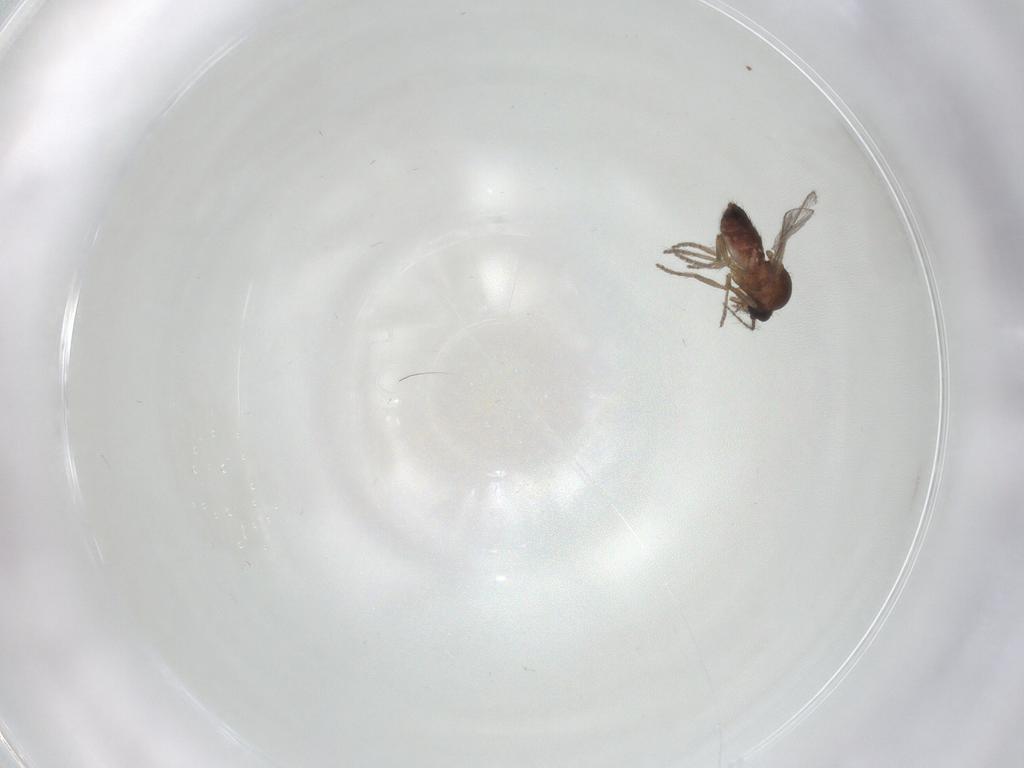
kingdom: Animalia
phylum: Arthropoda
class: Insecta
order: Diptera
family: Ceratopogonidae
